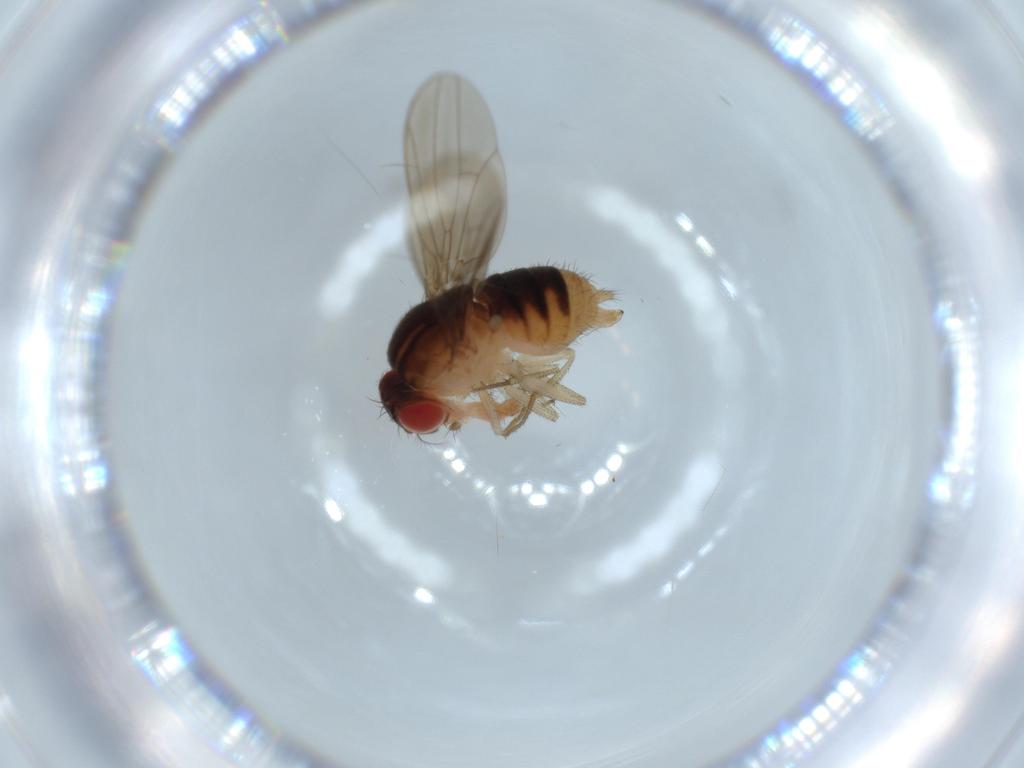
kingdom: Animalia
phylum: Arthropoda
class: Insecta
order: Diptera
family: Drosophilidae
